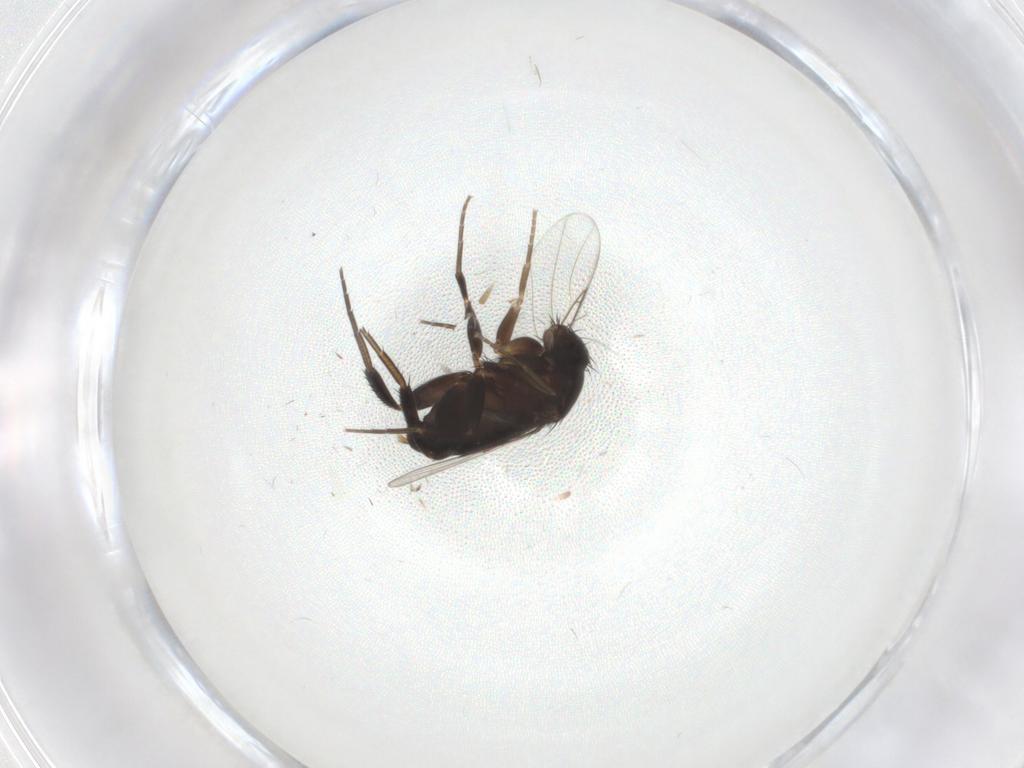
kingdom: Animalia
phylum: Arthropoda
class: Insecta
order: Diptera
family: Phoridae
